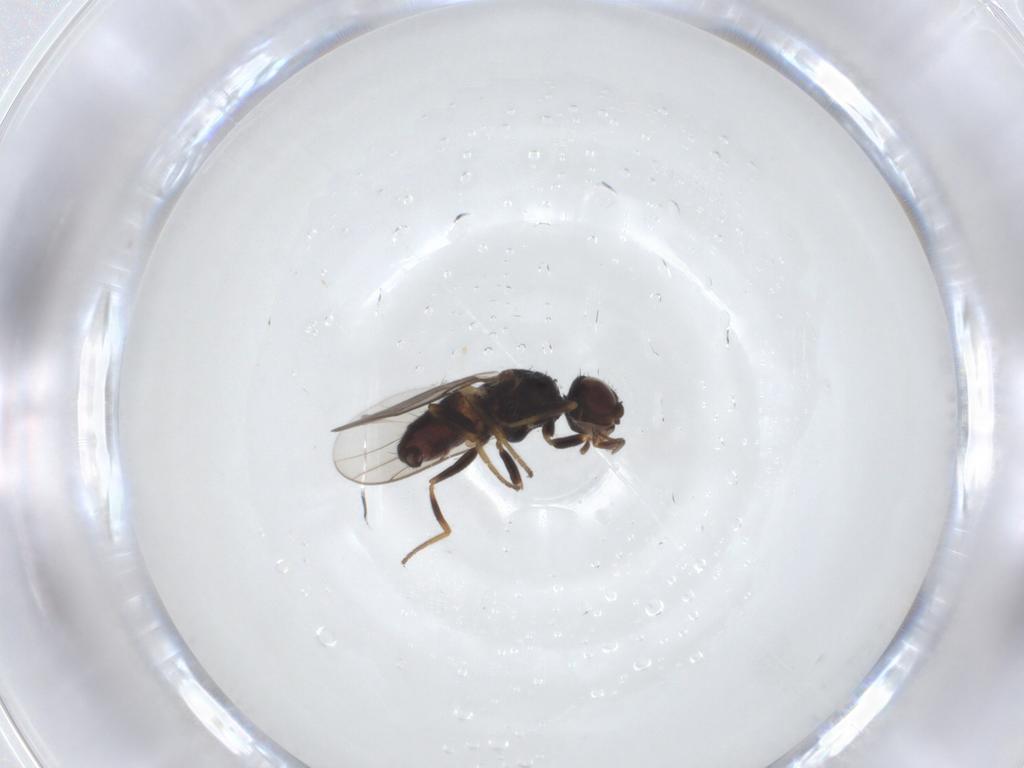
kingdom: Animalia
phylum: Arthropoda
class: Insecta
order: Diptera
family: Chloropidae
